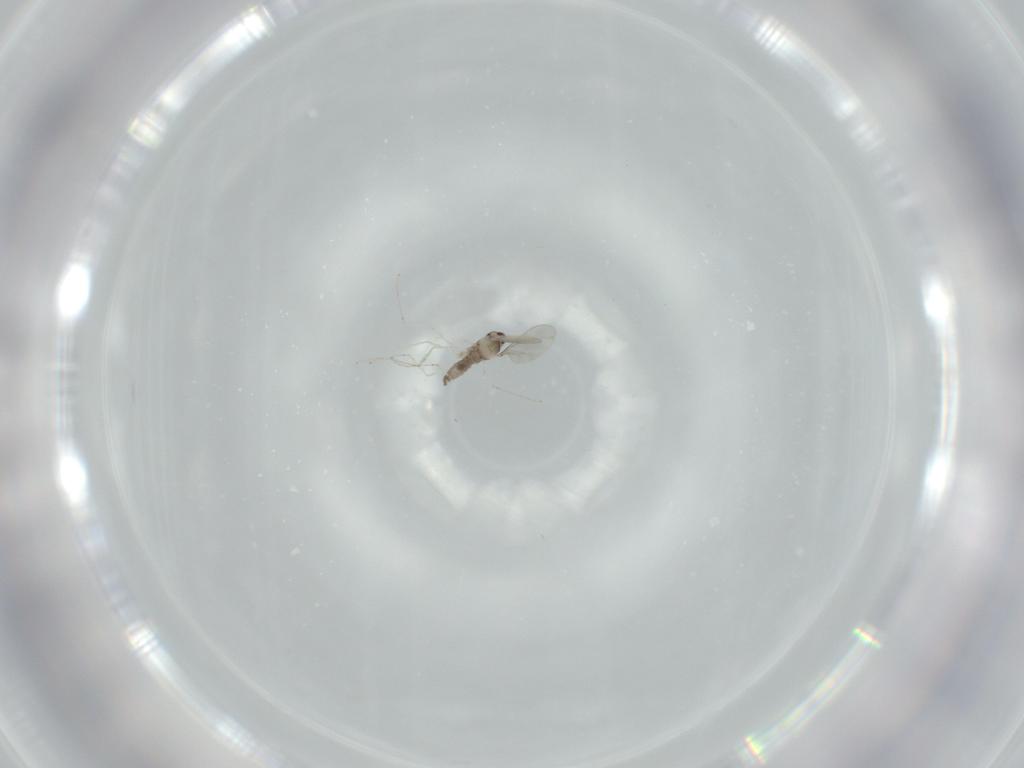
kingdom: Animalia
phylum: Arthropoda
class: Insecta
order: Diptera
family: Cecidomyiidae
